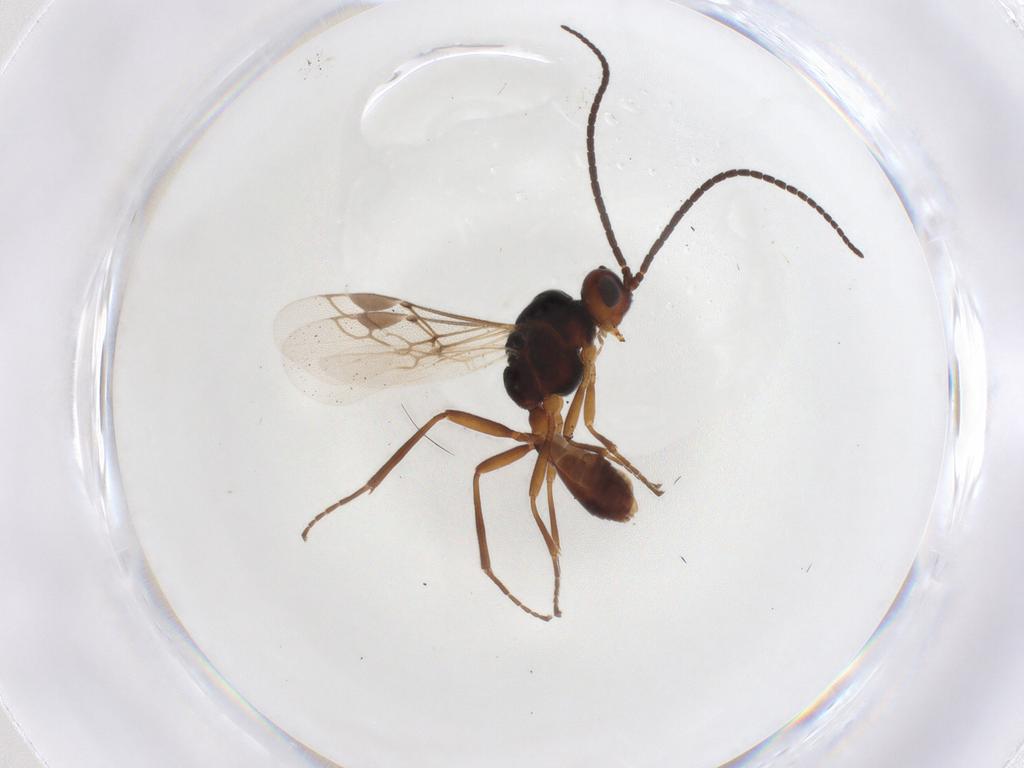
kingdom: Animalia
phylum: Arthropoda
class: Insecta
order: Hymenoptera
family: Braconidae
